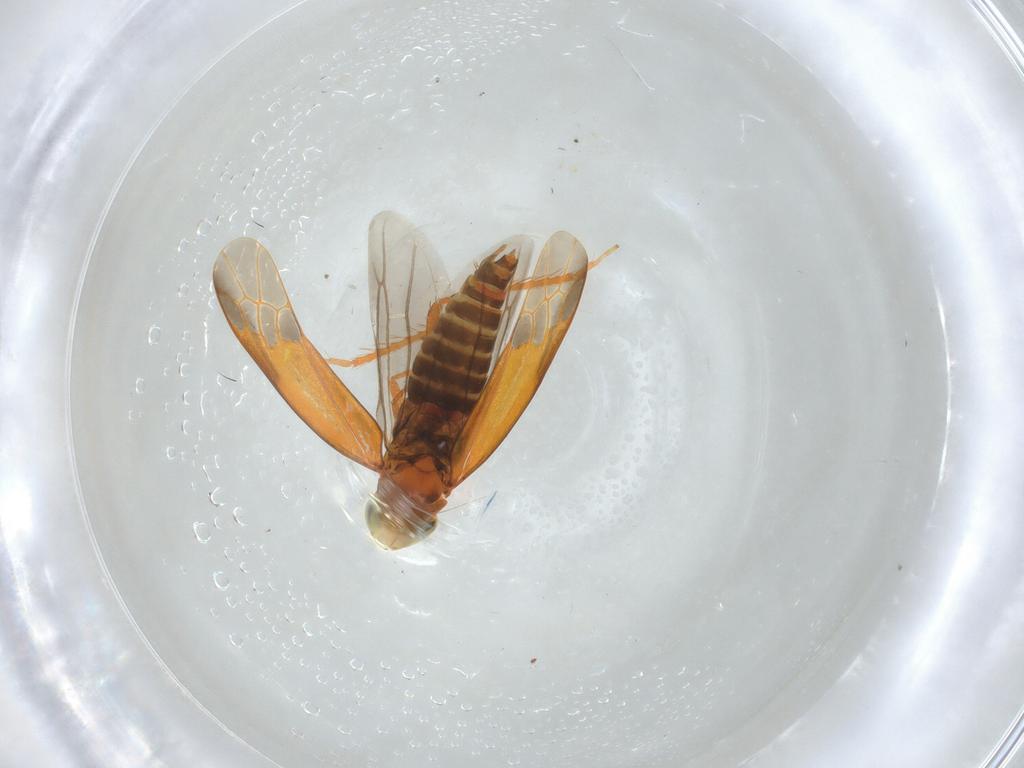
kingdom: Animalia
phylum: Arthropoda
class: Insecta
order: Hemiptera
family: Cicadellidae
